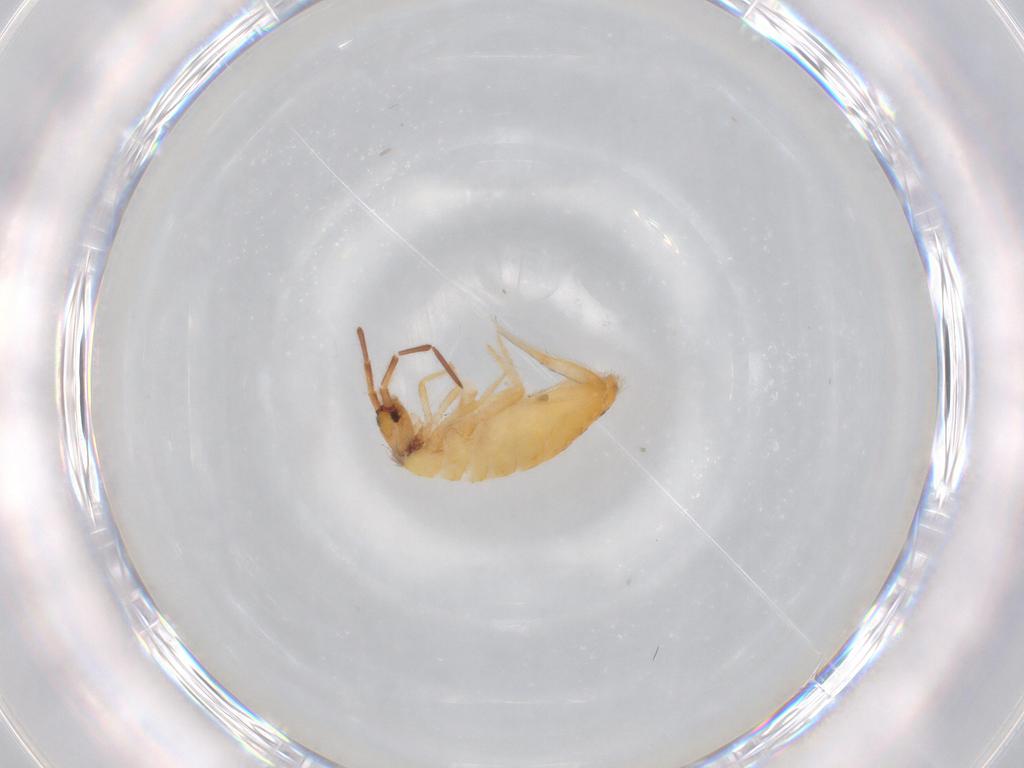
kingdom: Animalia
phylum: Arthropoda
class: Collembola
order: Entomobryomorpha
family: Entomobryidae
